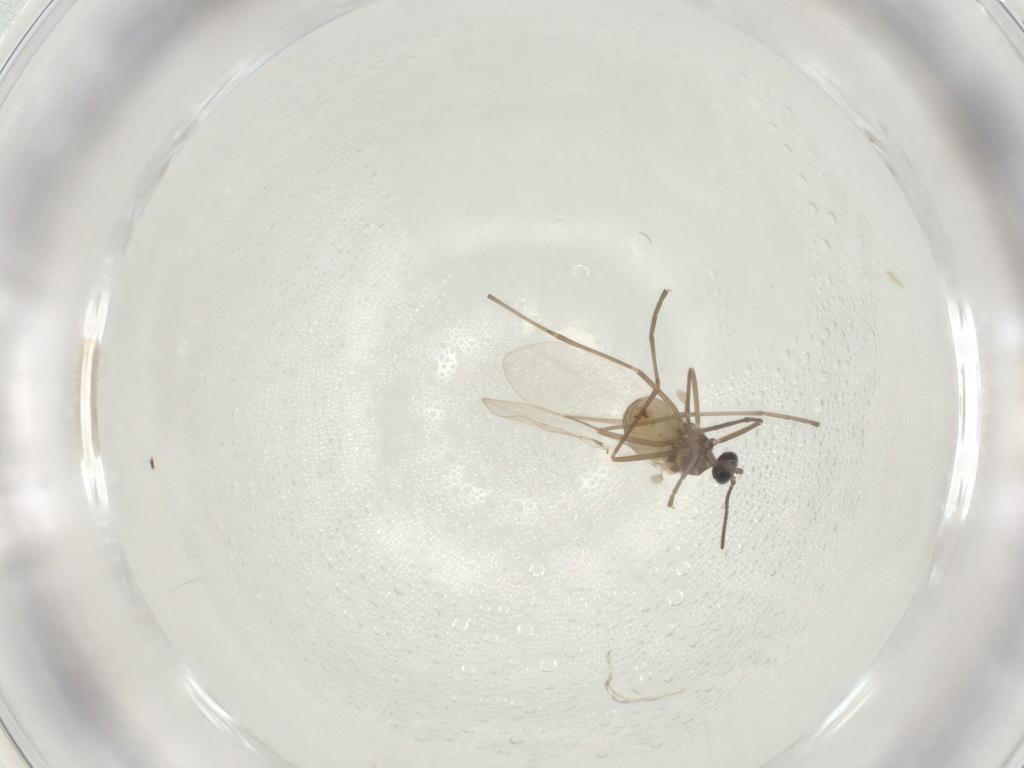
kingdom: Animalia
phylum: Arthropoda
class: Insecta
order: Diptera
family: Cecidomyiidae
